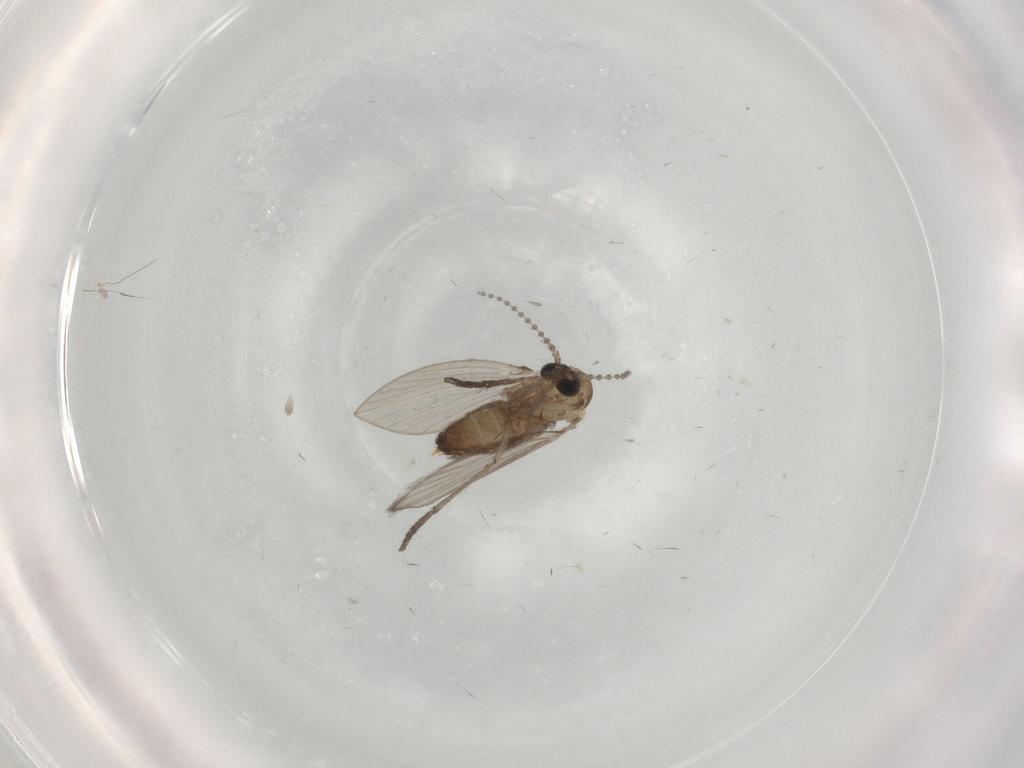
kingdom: Animalia
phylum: Arthropoda
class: Insecta
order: Diptera
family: Psychodidae
